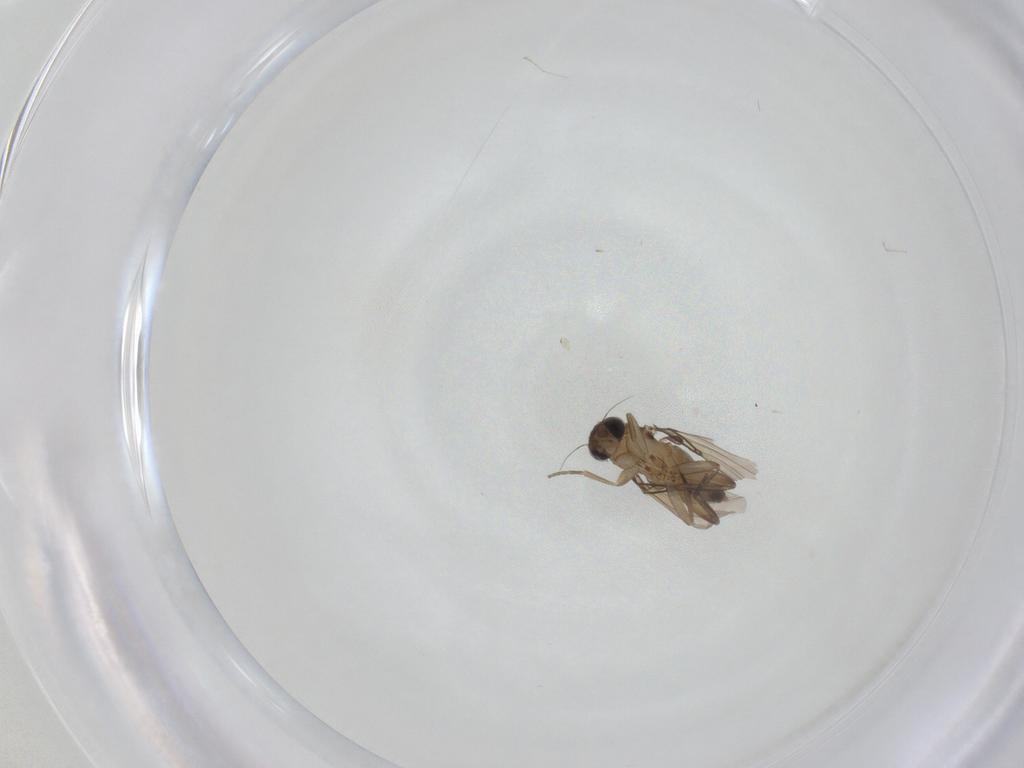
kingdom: Animalia
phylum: Arthropoda
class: Insecta
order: Diptera
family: Phoridae
